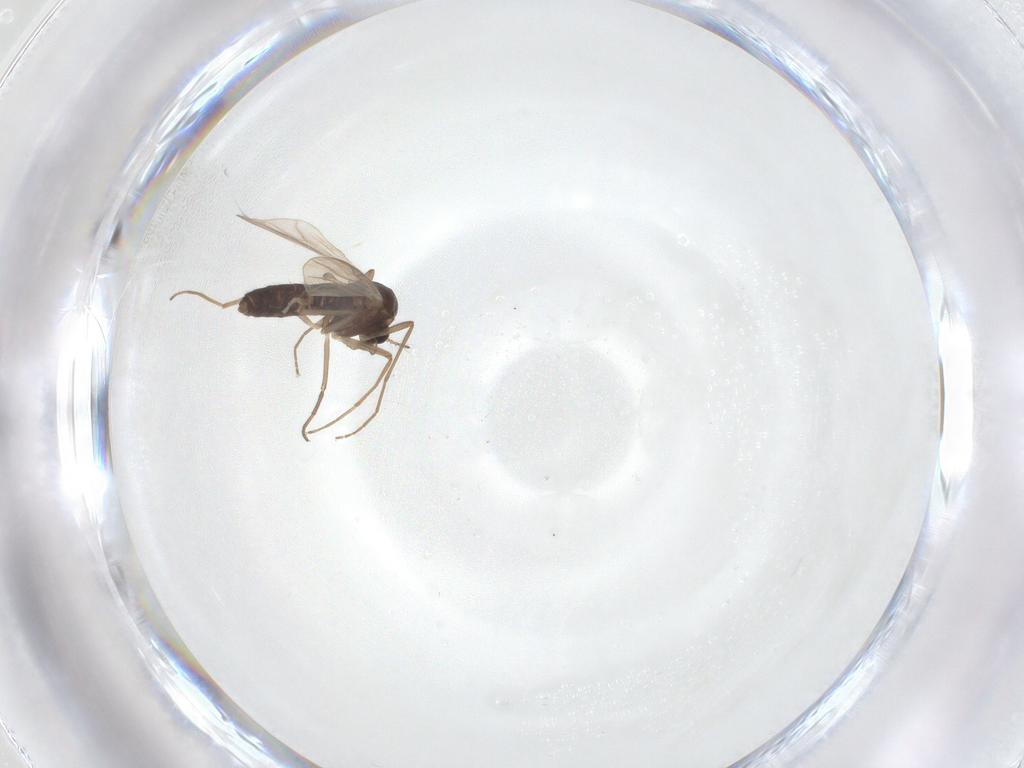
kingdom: Animalia
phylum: Arthropoda
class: Insecta
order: Diptera
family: Chironomidae
